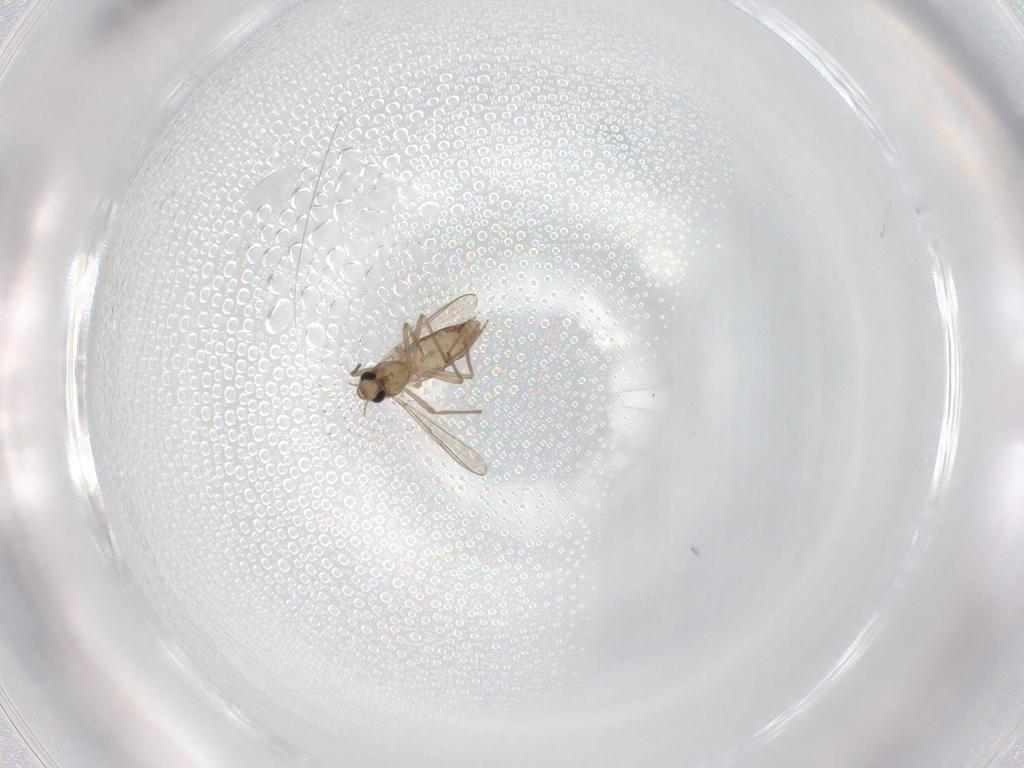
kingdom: Animalia
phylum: Arthropoda
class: Insecta
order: Diptera
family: Chironomidae
